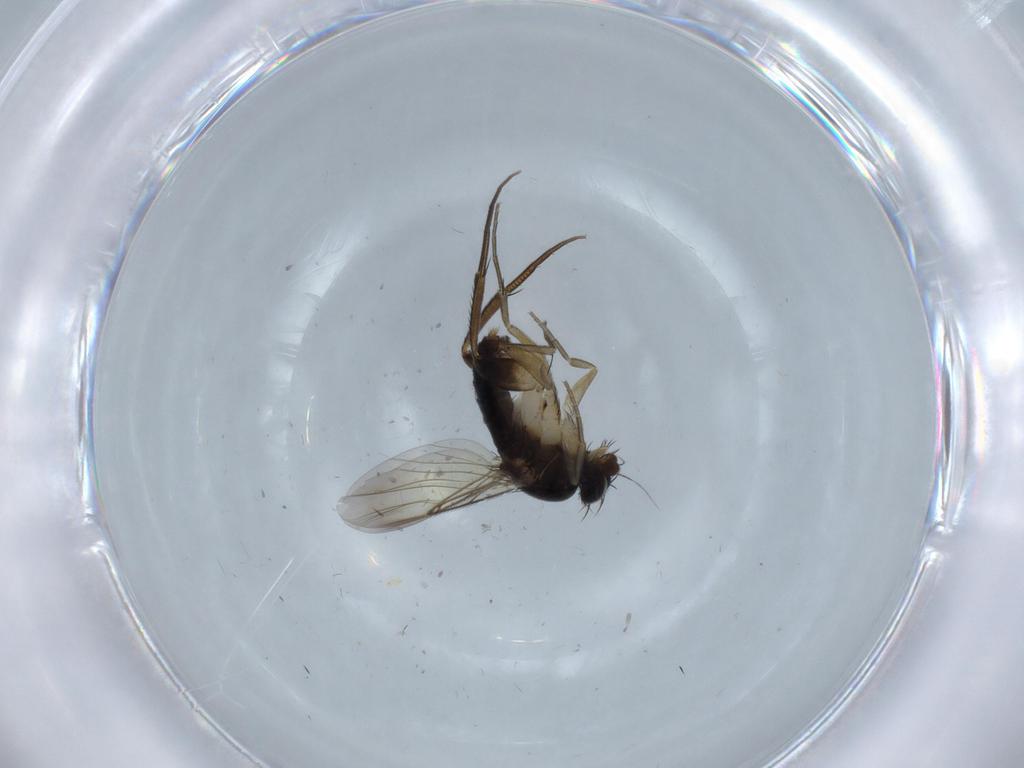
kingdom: Animalia
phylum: Arthropoda
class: Insecta
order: Diptera
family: Phoridae
